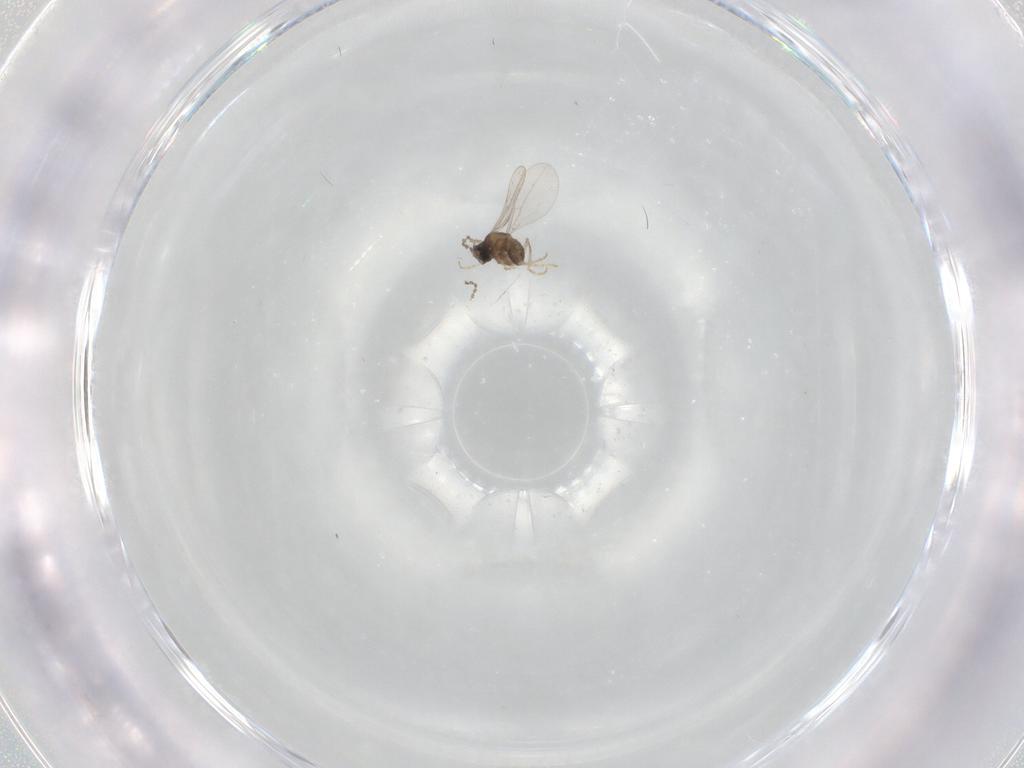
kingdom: Animalia
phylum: Arthropoda
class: Insecta
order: Diptera
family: Cecidomyiidae
